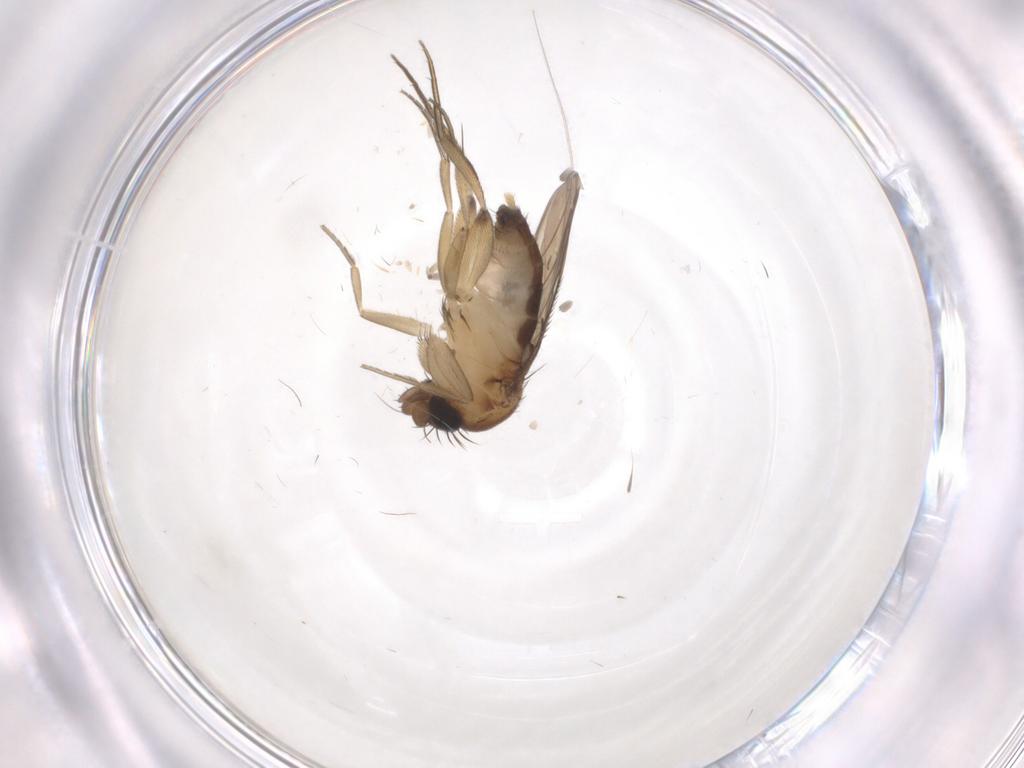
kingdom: Animalia
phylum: Arthropoda
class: Insecta
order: Diptera
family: Phoridae
